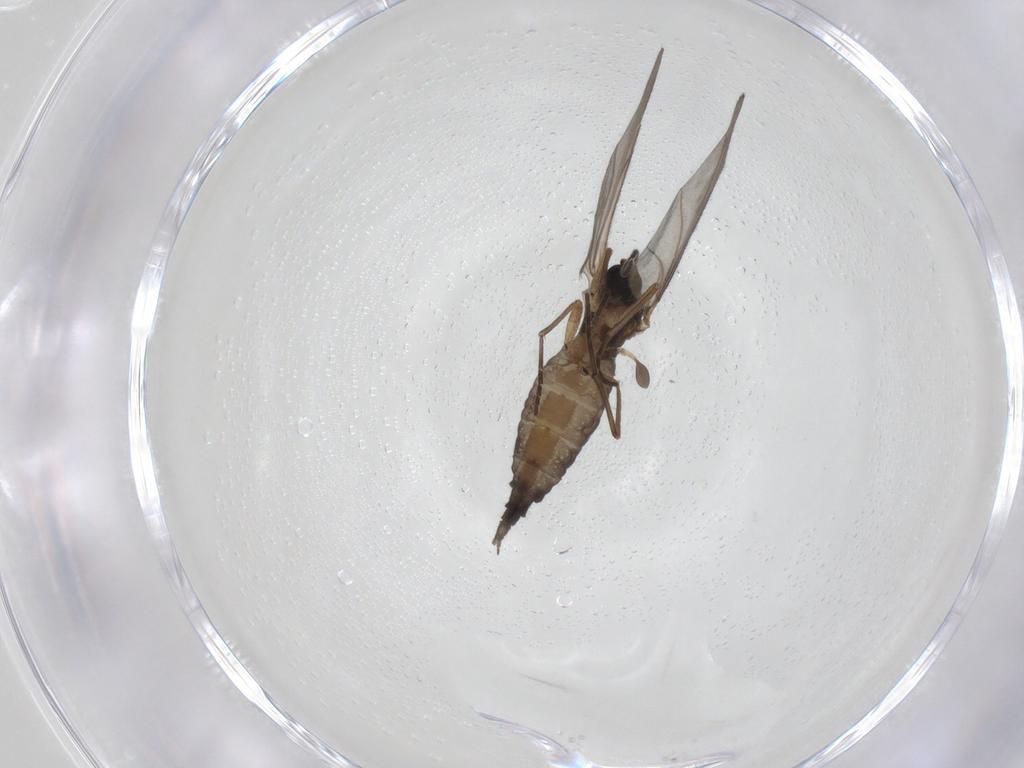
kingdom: Animalia
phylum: Arthropoda
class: Insecta
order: Diptera
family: Sciaridae
